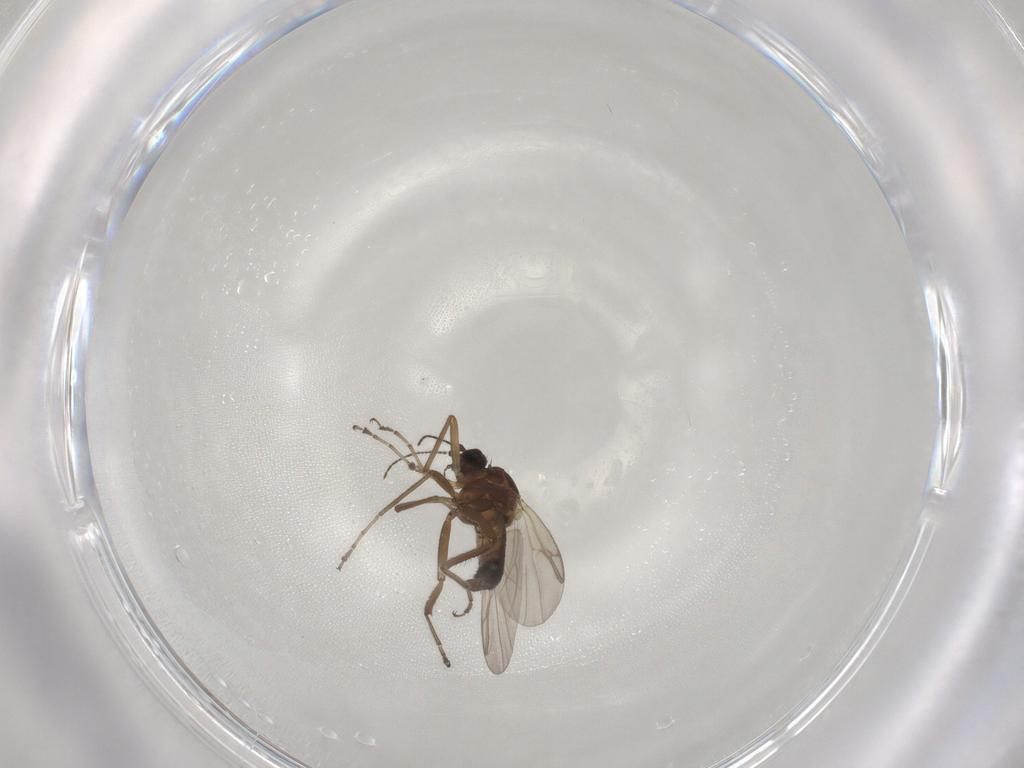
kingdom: Animalia
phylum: Arthropoda
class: Insecta
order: Diptera
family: Ceratopogonidae
